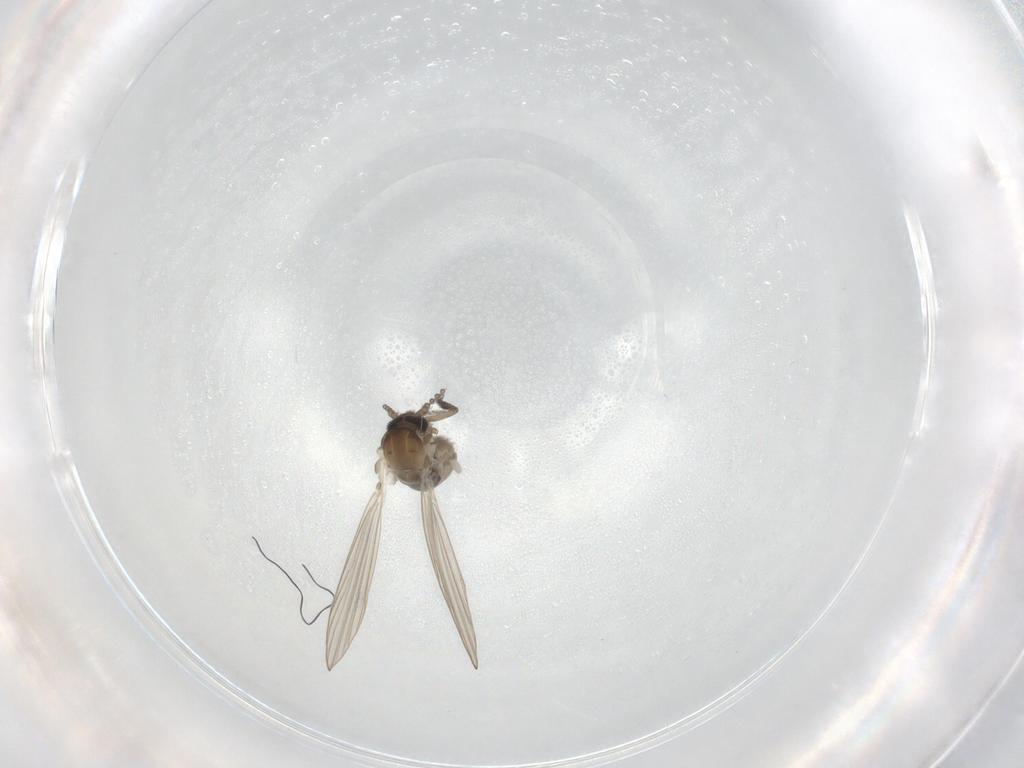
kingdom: Animalia
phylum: Arthropoda
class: Insecta
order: Diptera
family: Psychodidae
